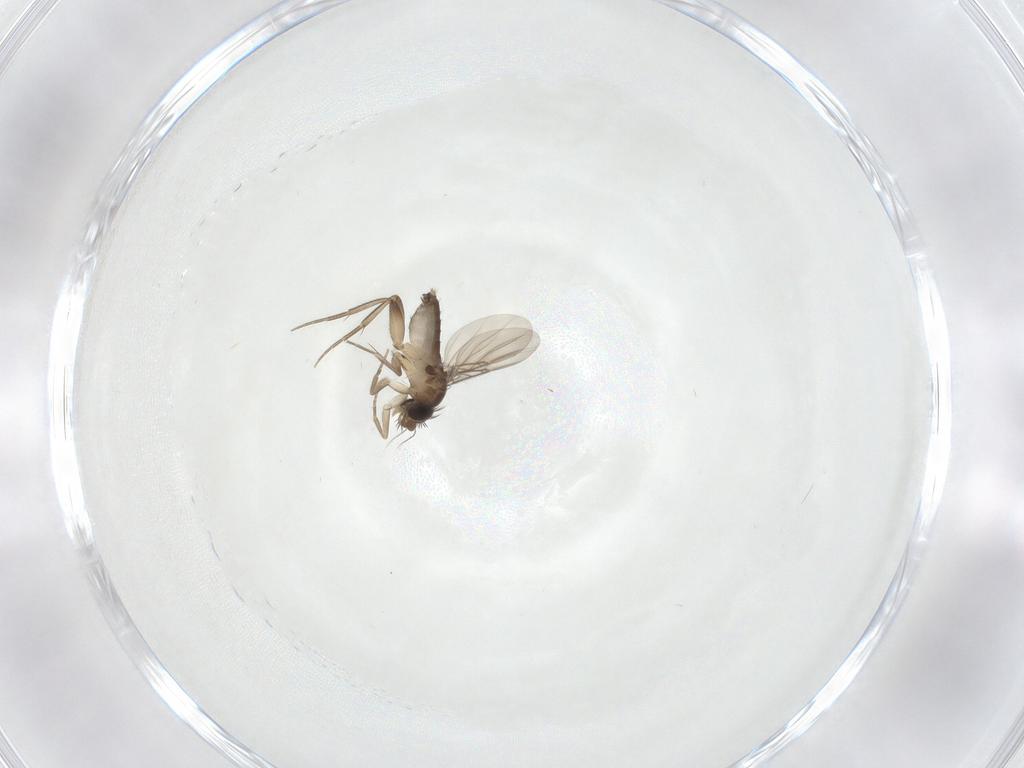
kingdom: Animalia
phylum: Arthropoda
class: Insecta
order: Diptera
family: Phoridae
